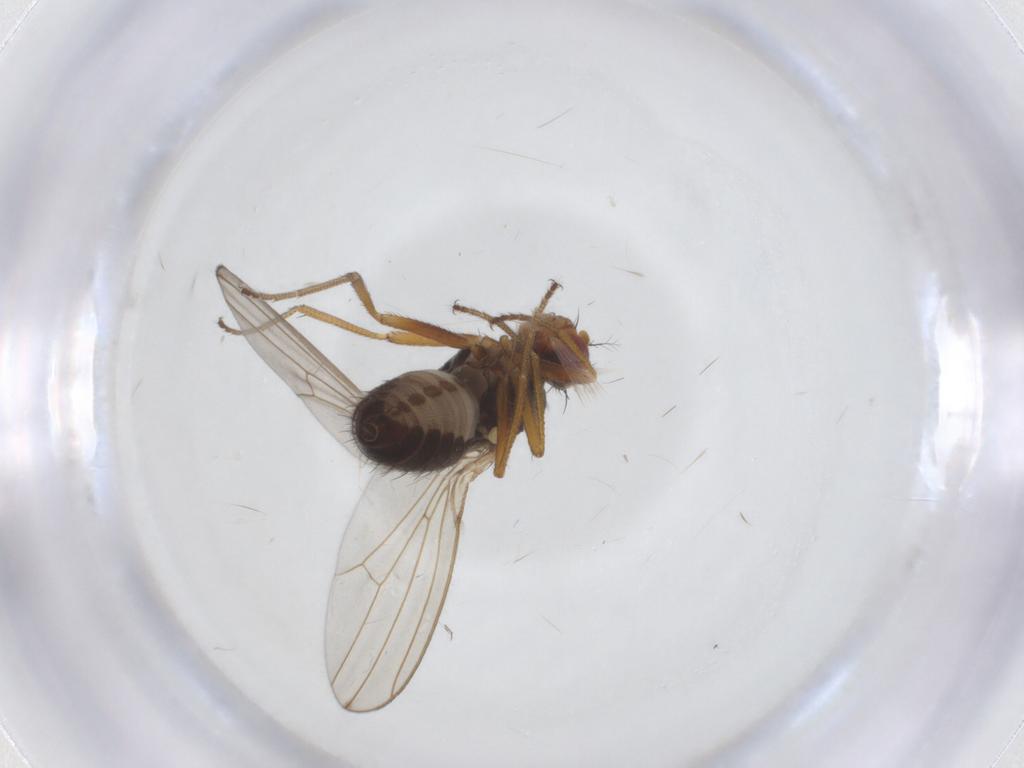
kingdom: Animalia
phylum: Arthropoda
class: Insecta
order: Diptera
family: Drosophilidae
